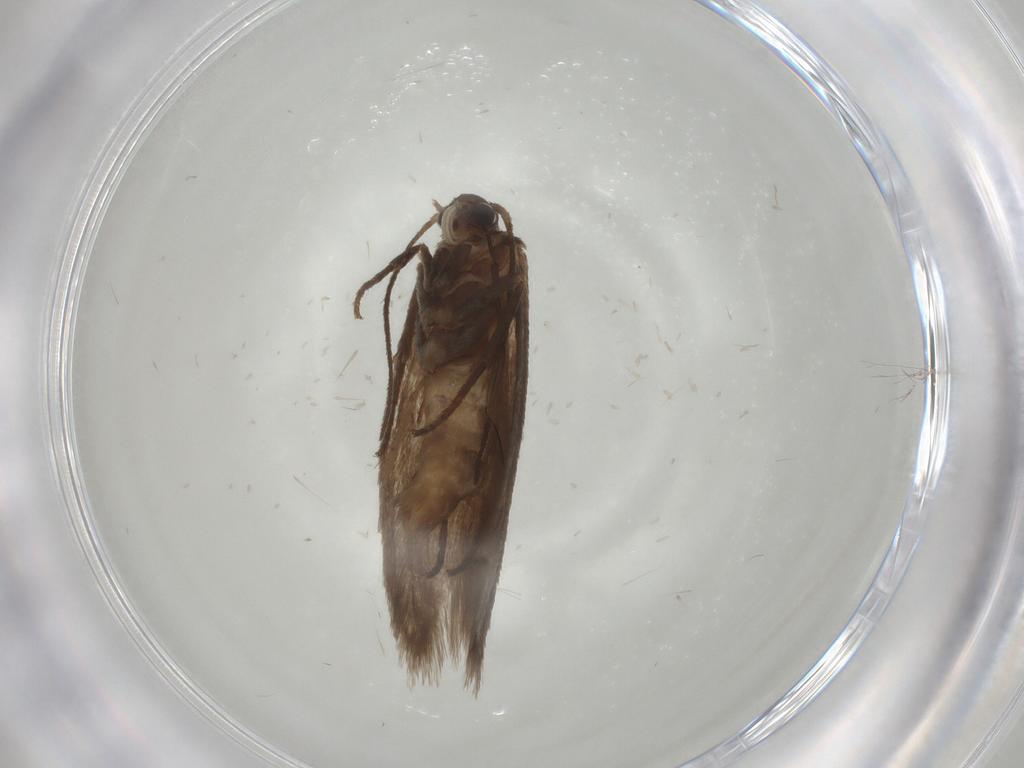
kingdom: Animalia
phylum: Arthropoda
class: Insecta
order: Lepidoptera
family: Limacodidae
